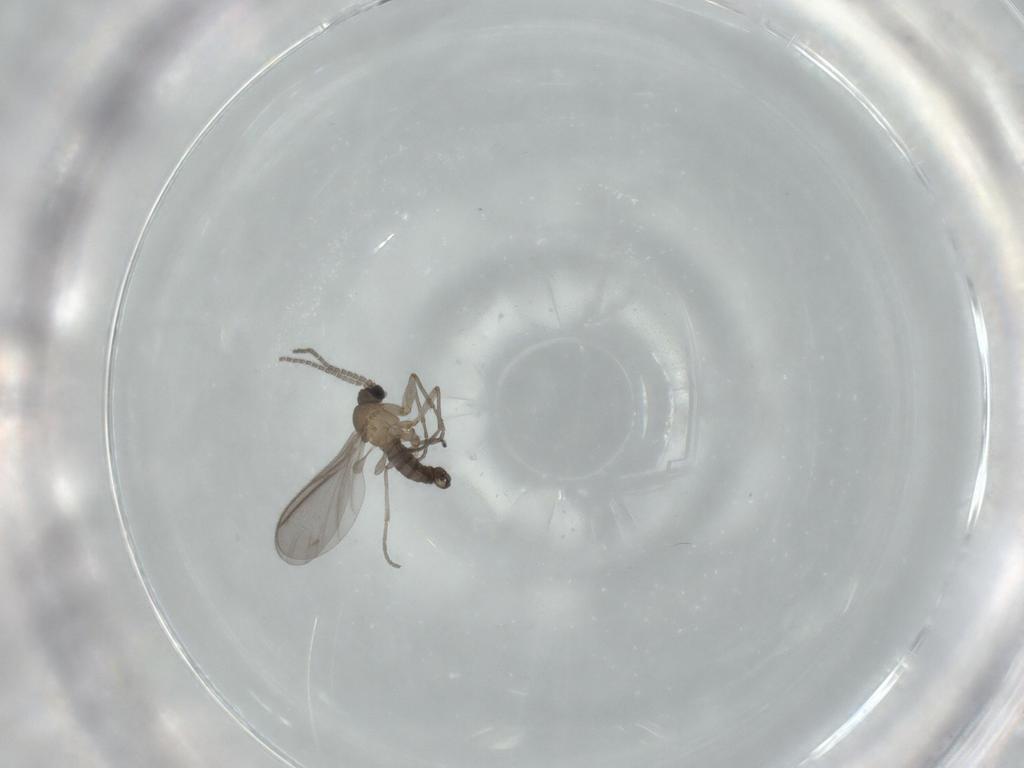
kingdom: Animalia
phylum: Arthropoda
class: Insecta
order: Diptera
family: Sciaridae
